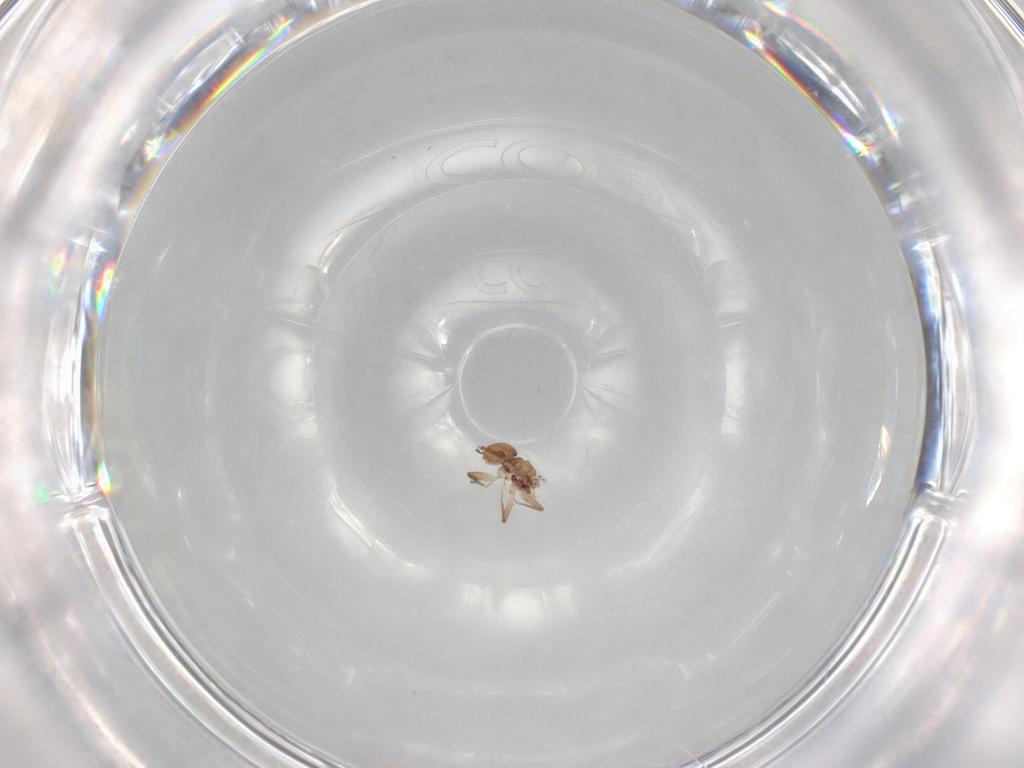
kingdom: Animalia
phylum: Arthropoda
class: Insecta
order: Psocodea
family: Lepidopsocidae
